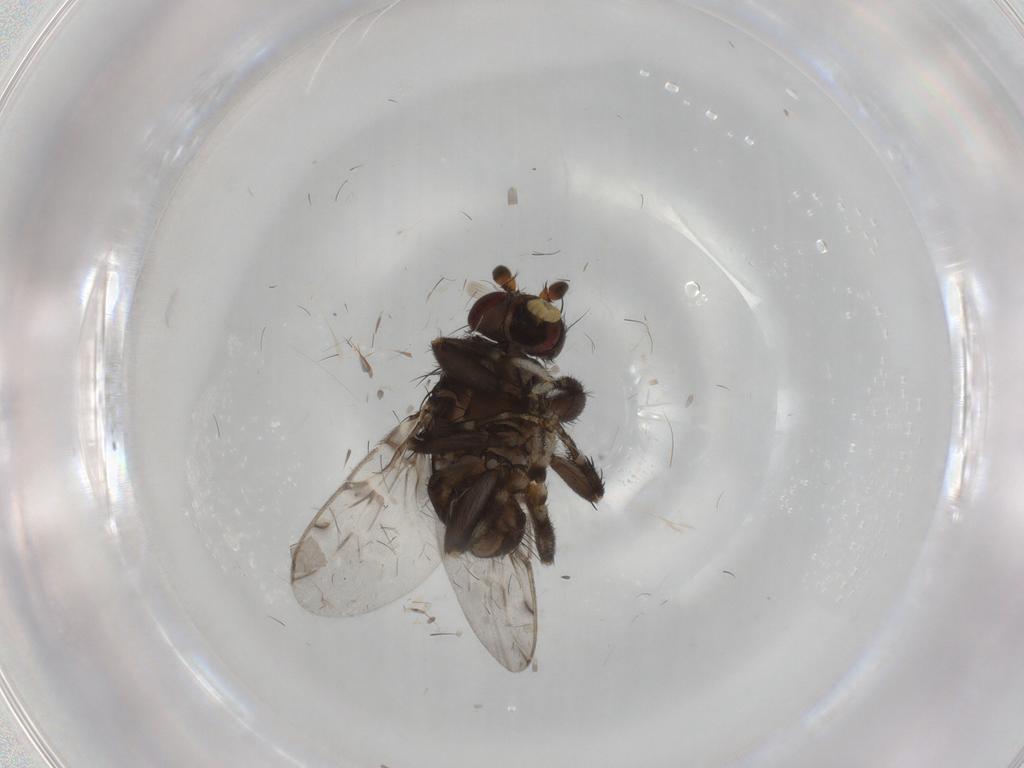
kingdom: Animalia
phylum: Arthropoda
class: Insecta
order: Diptera
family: Sphaeroceridae
